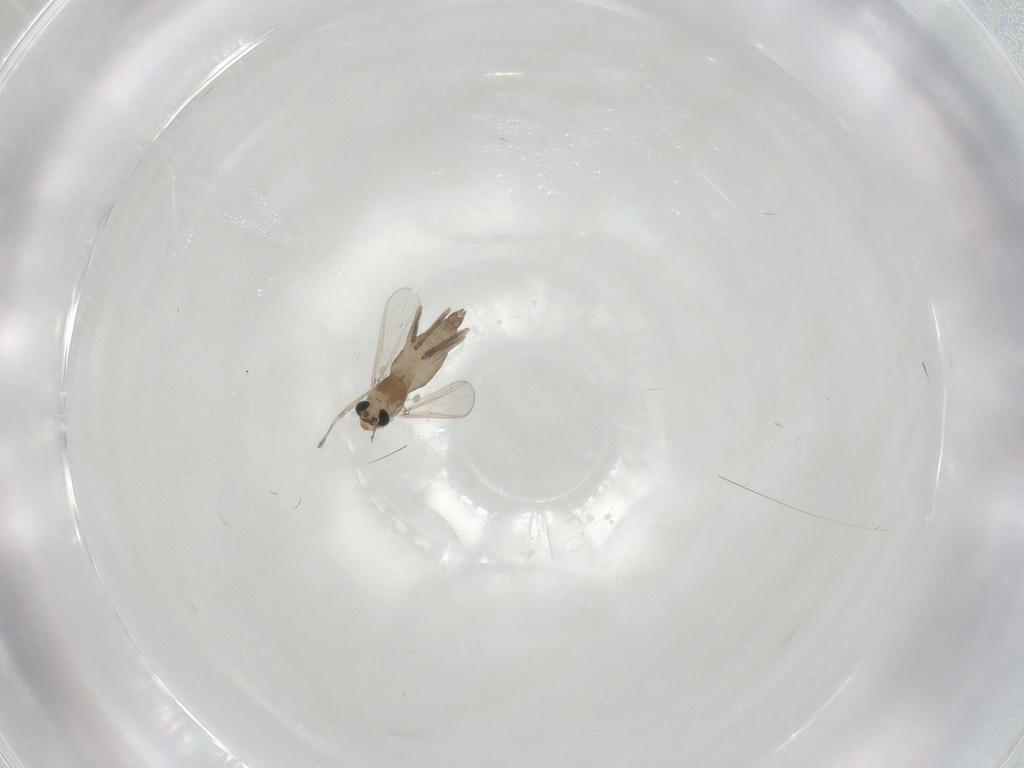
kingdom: Animalia
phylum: Arthropoda
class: Insecta
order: Diptera
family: Chironomidae
